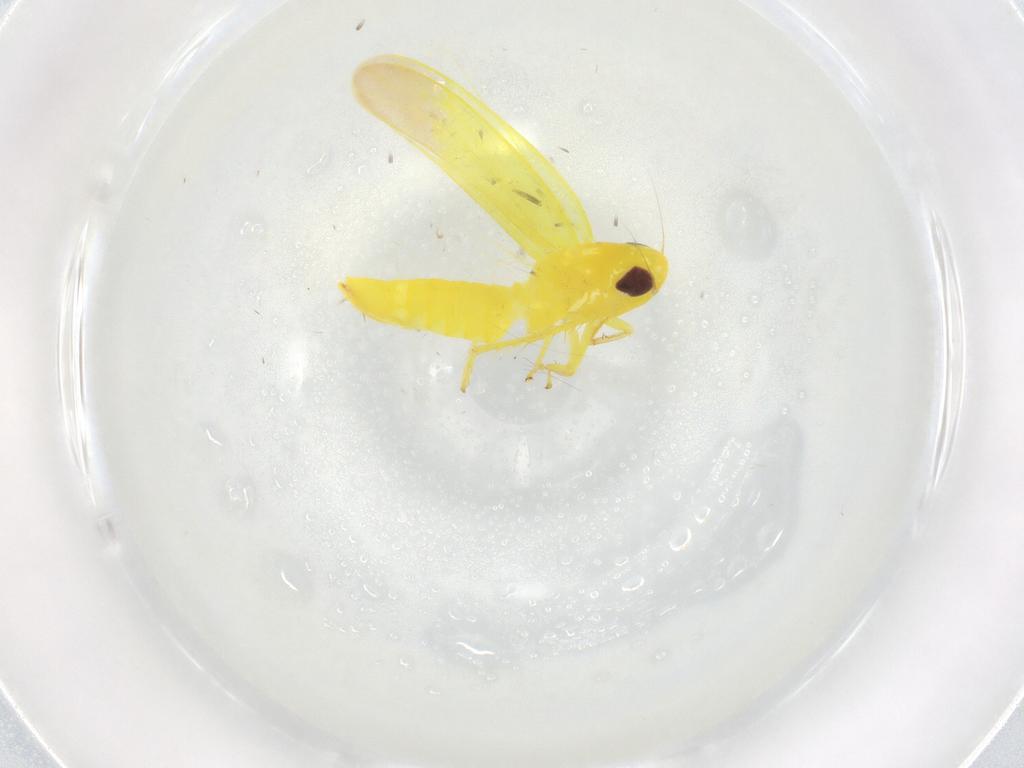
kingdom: Animalia
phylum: Arthropoda
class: Insecta
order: Hemiptera
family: Cicadellidae
